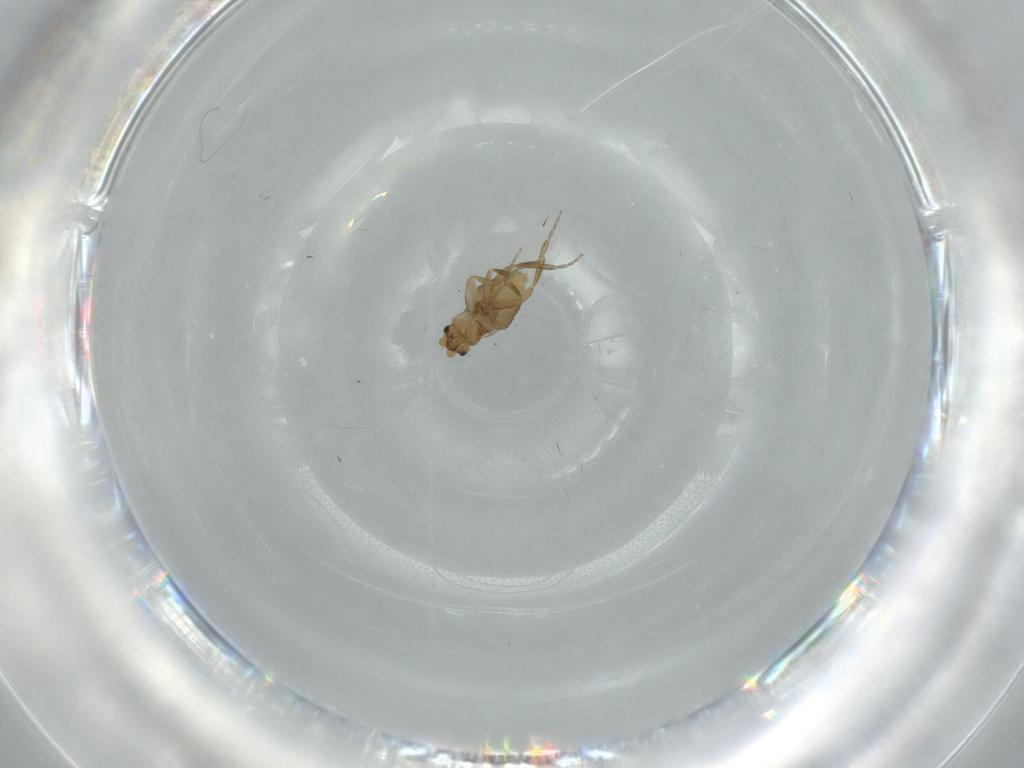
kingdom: Animalia
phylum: Arthropoda
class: Insecta
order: Diptera
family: Phoridae
